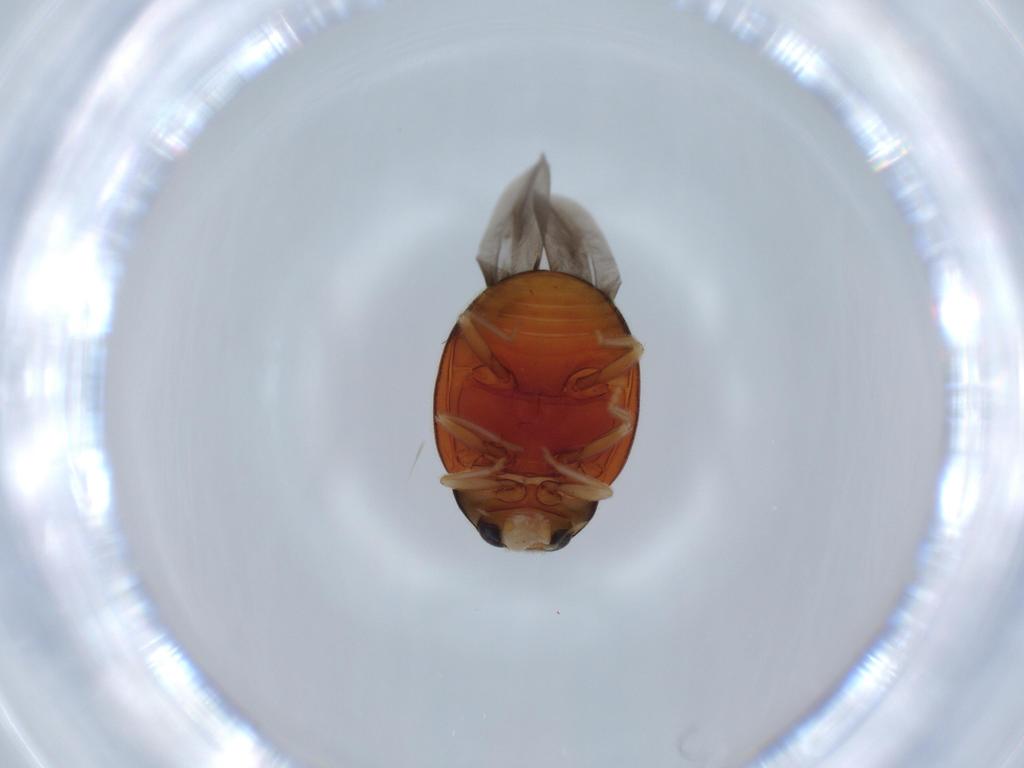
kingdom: Animalia
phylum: Arthropoda
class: Insecta
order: Coleoptera
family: Coccinellidae
